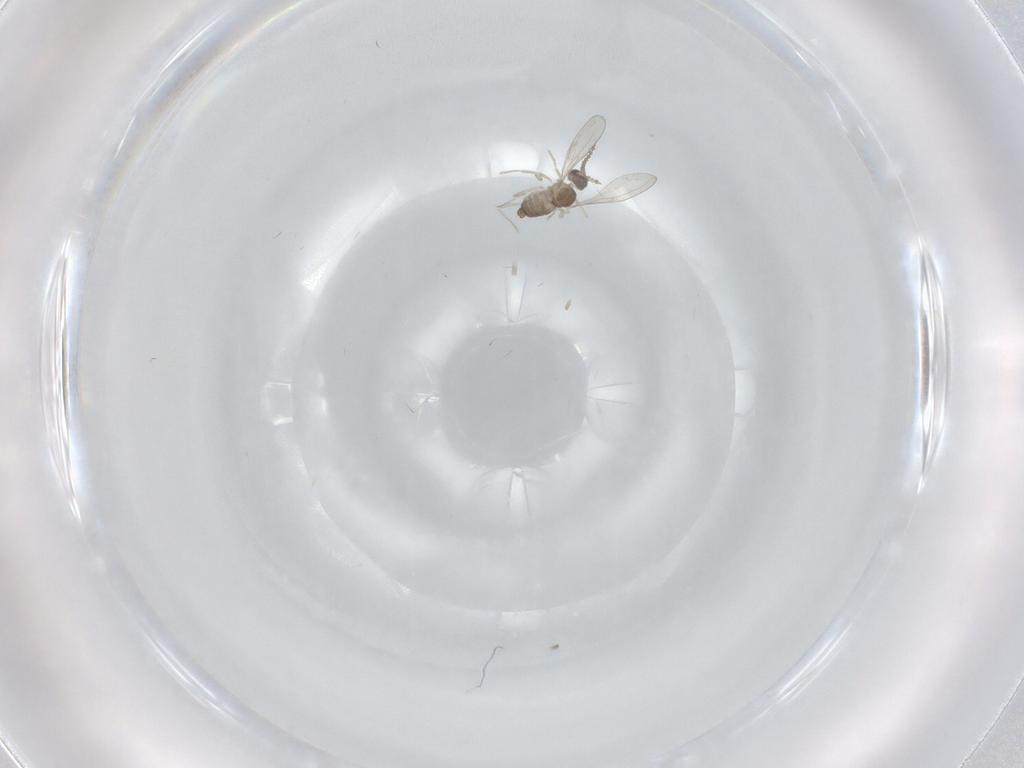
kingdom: Animalia
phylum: Arthropoda
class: Insecta
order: Diptera
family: Cecidomyiidae
